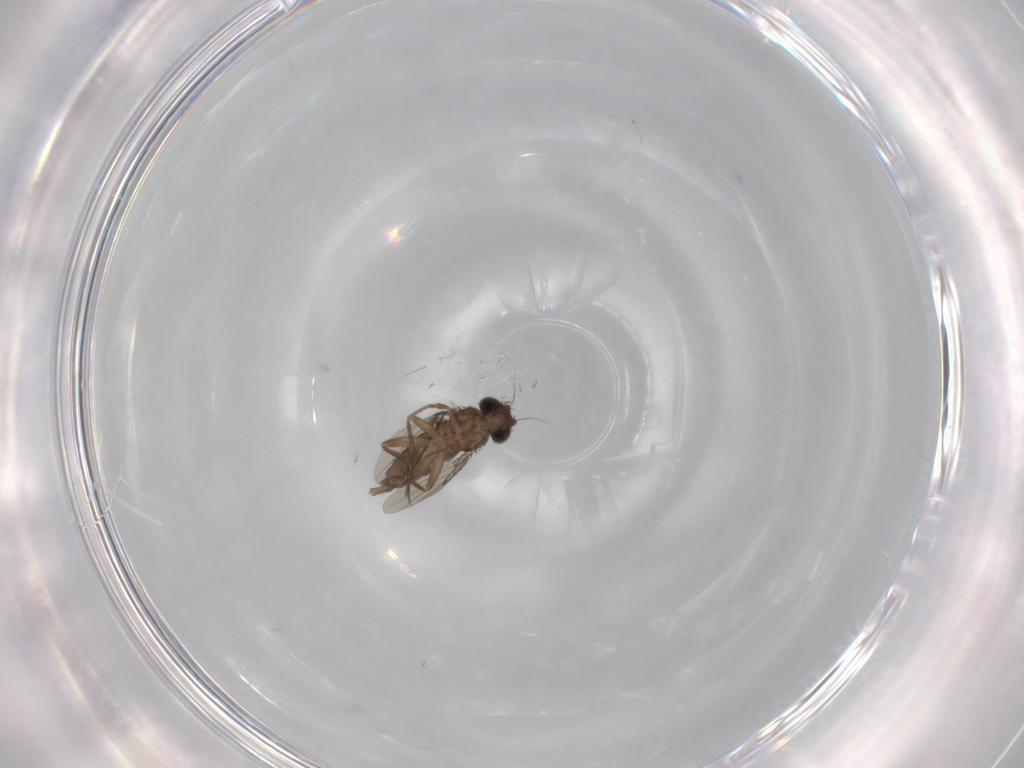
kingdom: Animalia
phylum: Arthropoda
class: Insecta
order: Diptera
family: Phoridae
